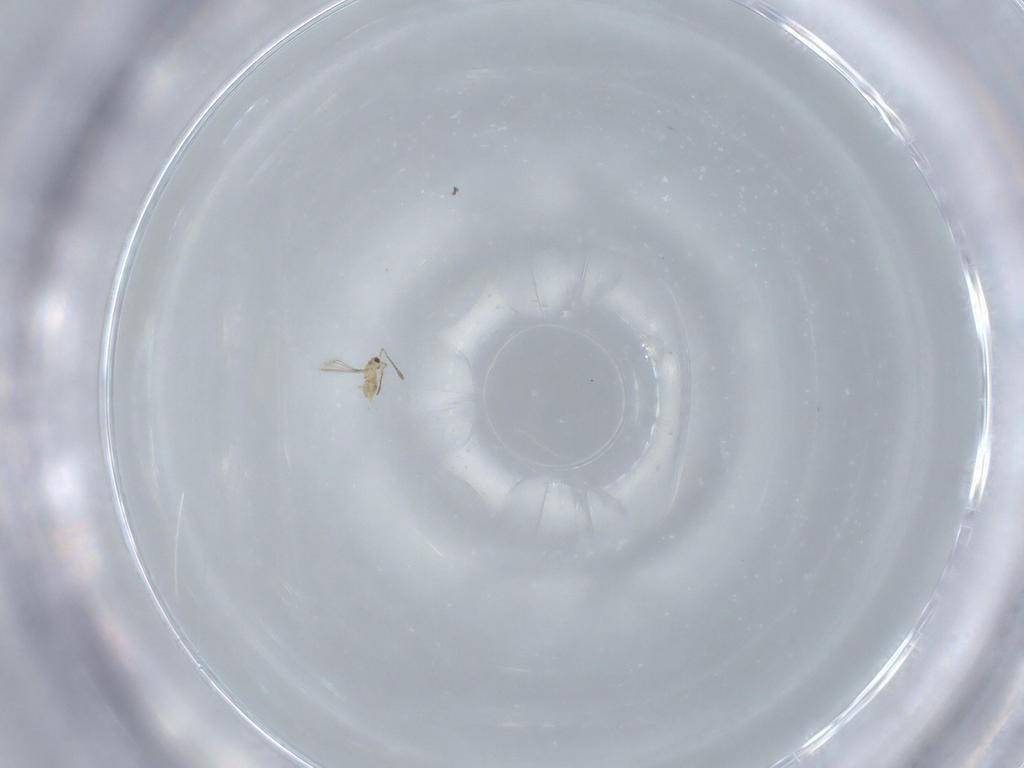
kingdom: Animalia
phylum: Arthropoda
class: Insecta
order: Hymenoptera
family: Mymaridae
